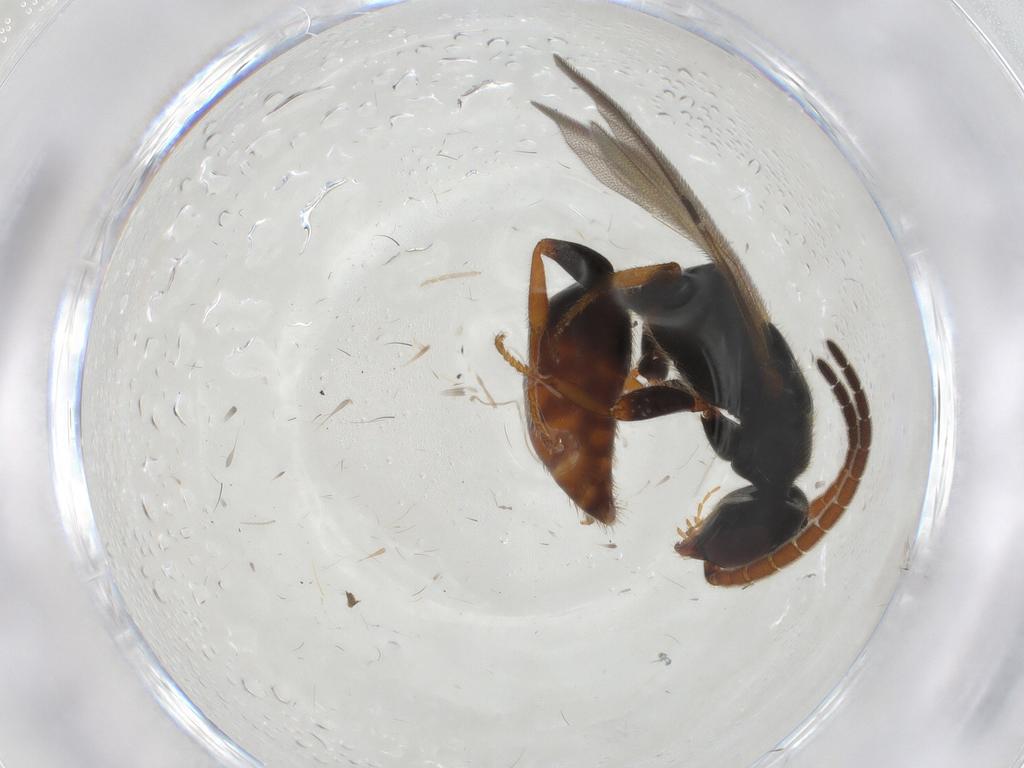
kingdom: Animalia
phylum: Arthropoda
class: Insecta
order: Hymenoptera
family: Bethylidae
